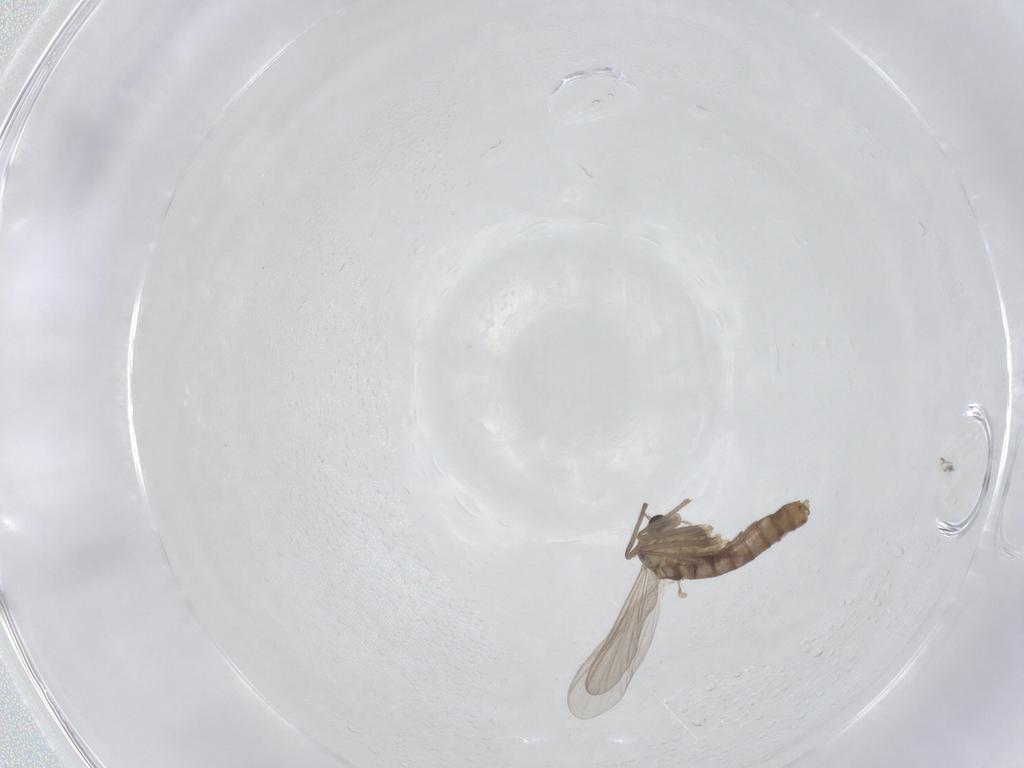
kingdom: Animalia
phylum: Arthropoda
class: Insecta
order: Diptera
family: Chironomidae
